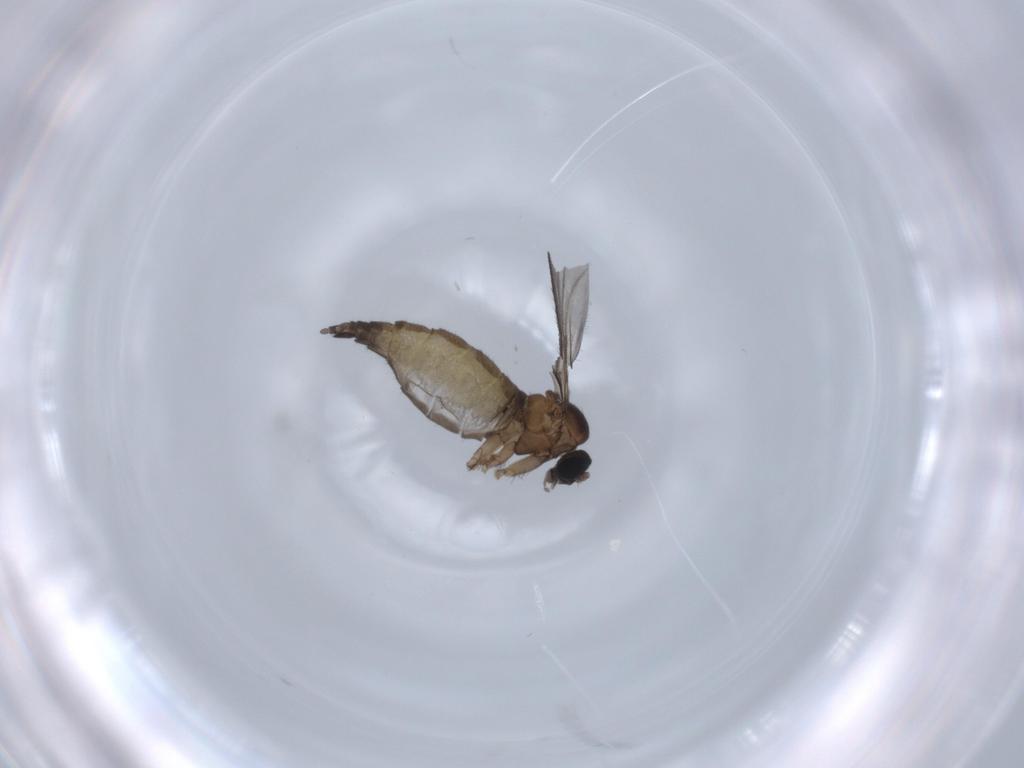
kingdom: Animalia
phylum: Arthropoda
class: Insecta
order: Diptera
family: Sciaridae
